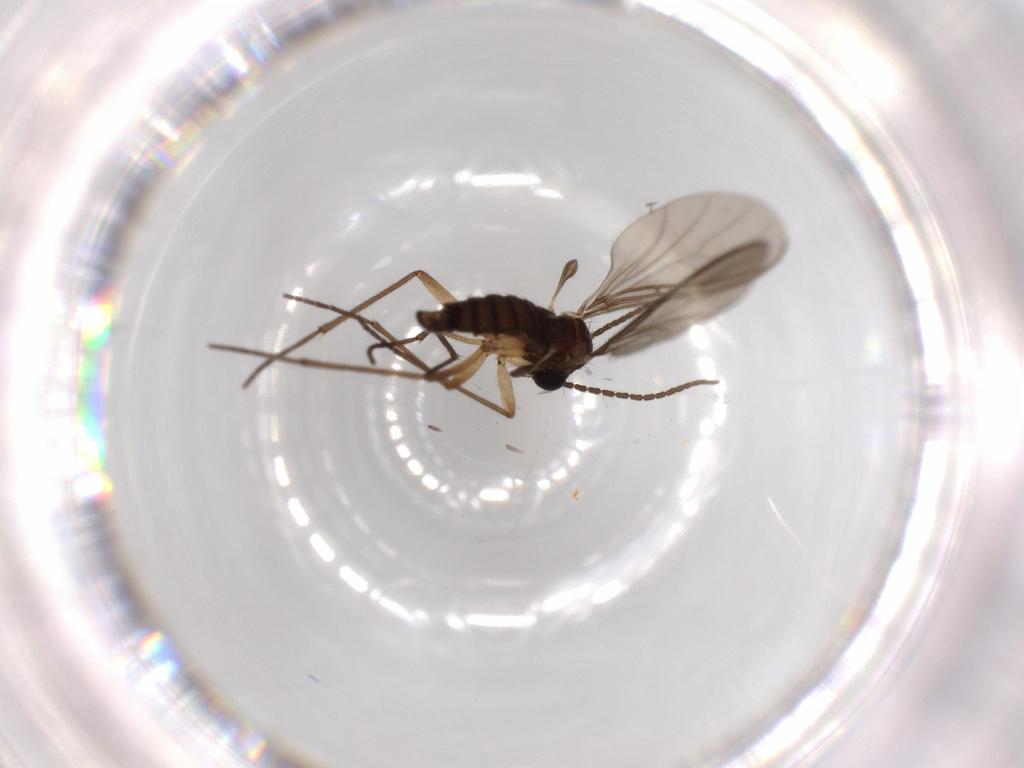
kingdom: Animalia
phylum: Arthropoda
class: Insecta
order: Diptera
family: Sciaridae
